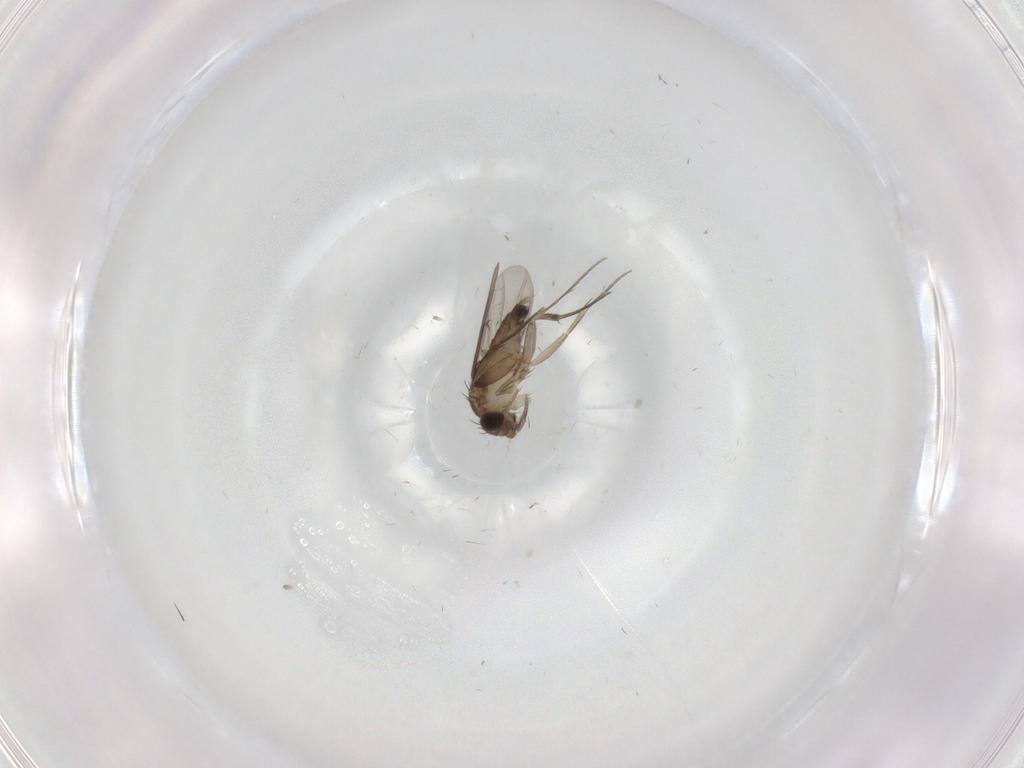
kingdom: Animalia
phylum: Arthropoda
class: Insecta
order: Diptera
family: Phoridae
